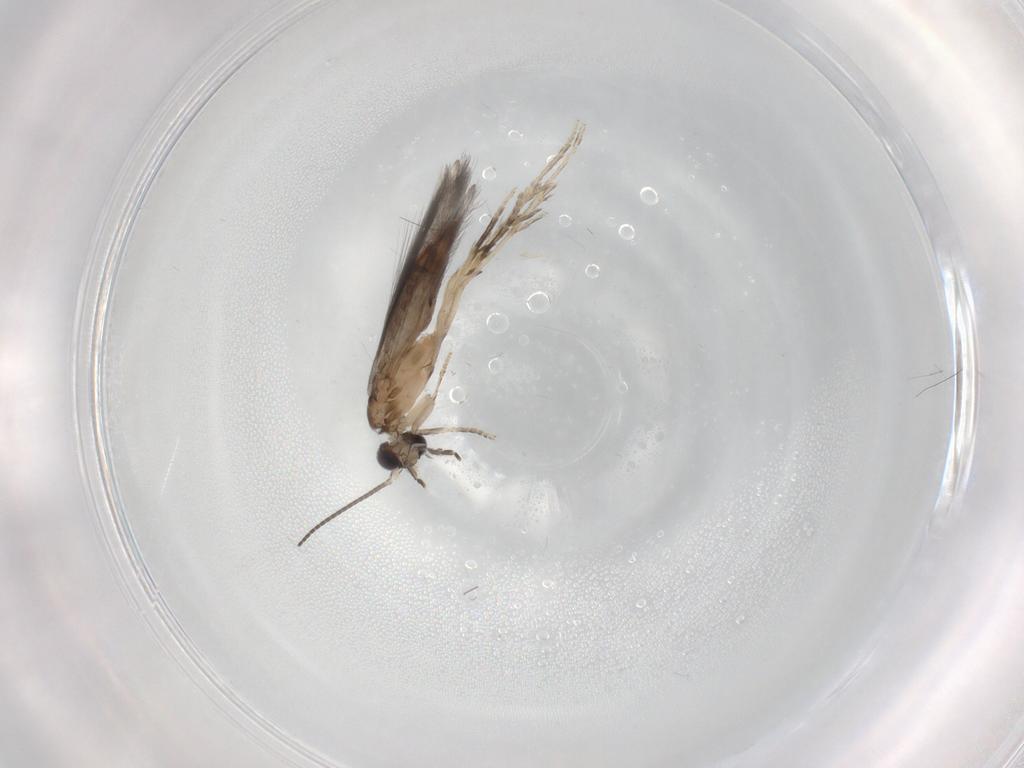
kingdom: Animalia
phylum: Arthropoda
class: Insecta
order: Trichoptera
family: Hydroptilidae
